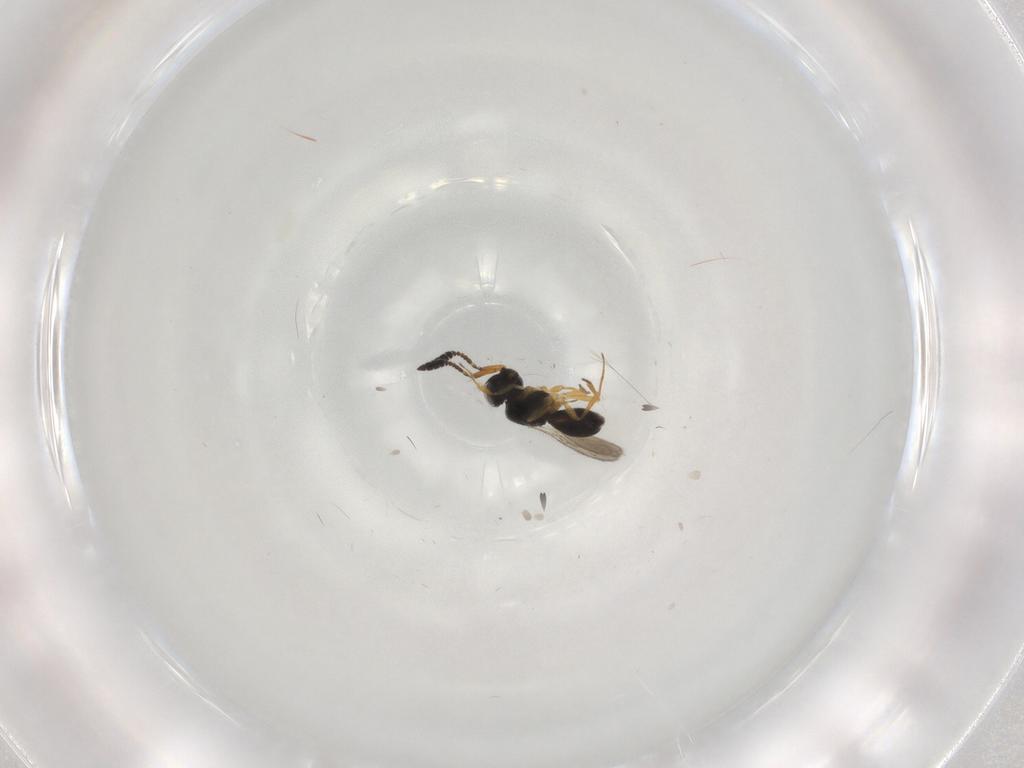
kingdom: Animalia
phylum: Arthropoda
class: Insecta
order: Hymenoptera
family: Scelionidae
